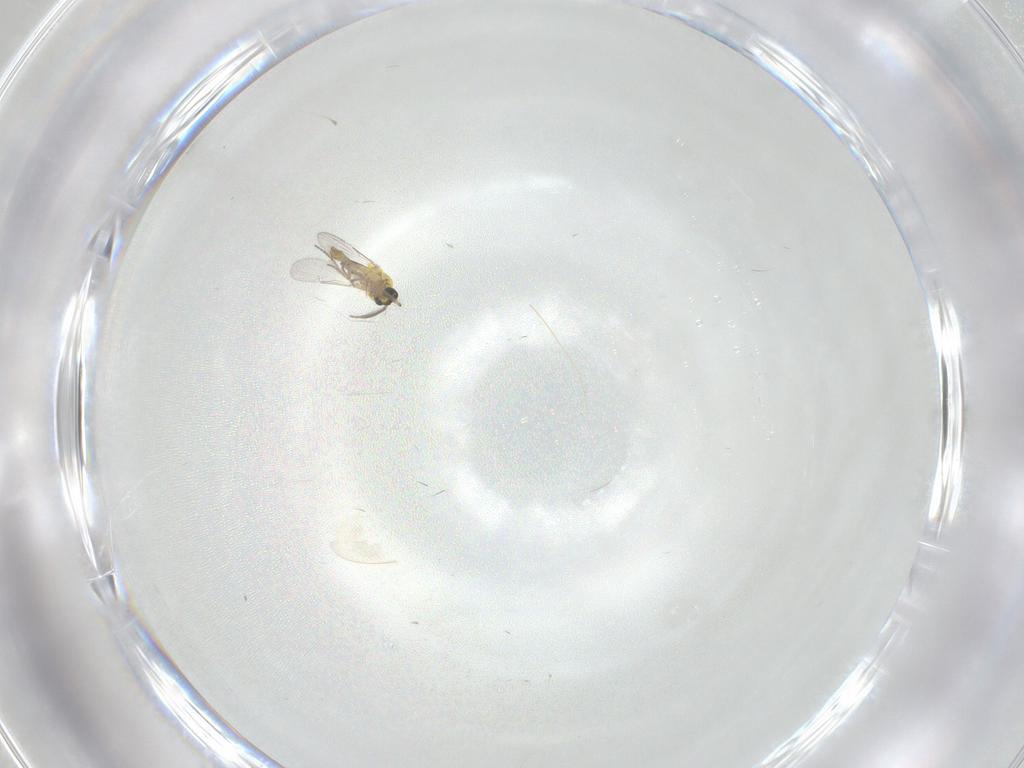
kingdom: Animalia
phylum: Arthropoda
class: Insecta
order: Diptera
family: Ceratopogonidae
